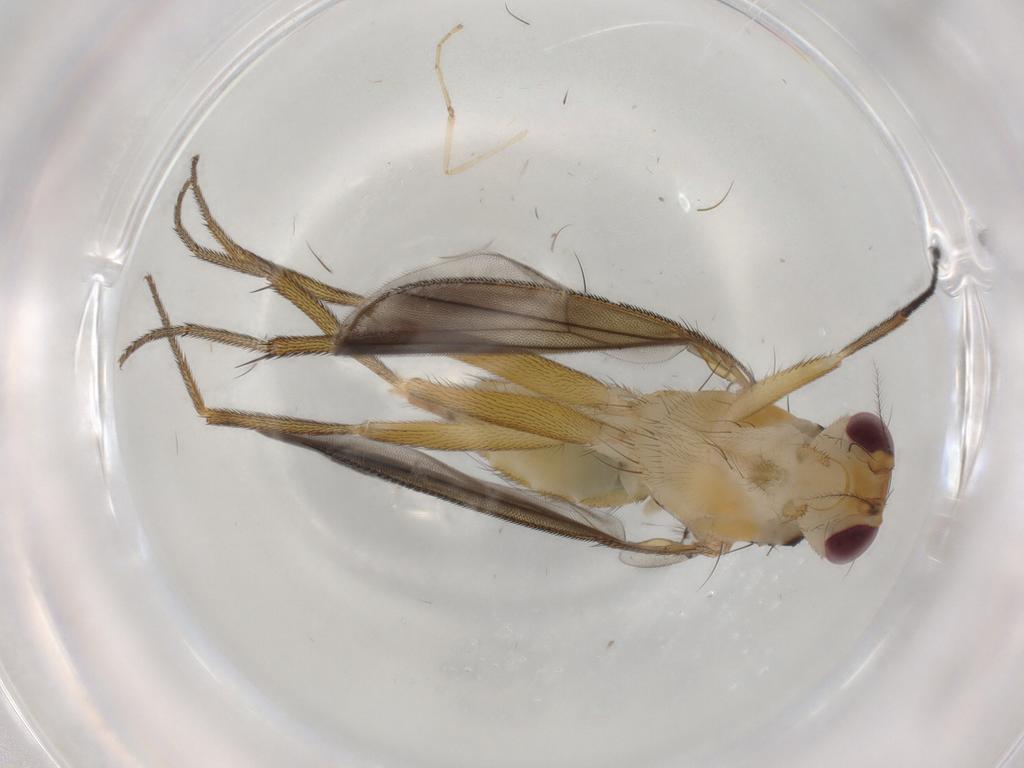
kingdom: Animalia
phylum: Arthropoda
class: Insecta
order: Diptera
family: Clusiidae
